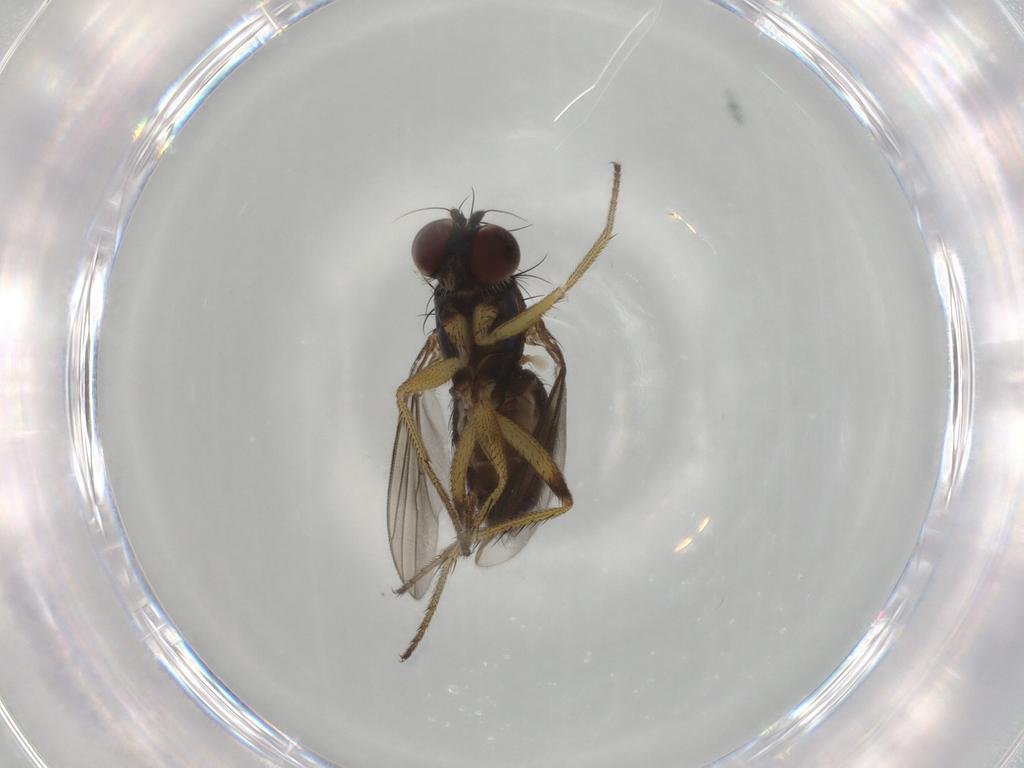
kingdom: Animalia
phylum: Arthropoda
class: Insecta
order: Diptera
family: Dolichopodidae
